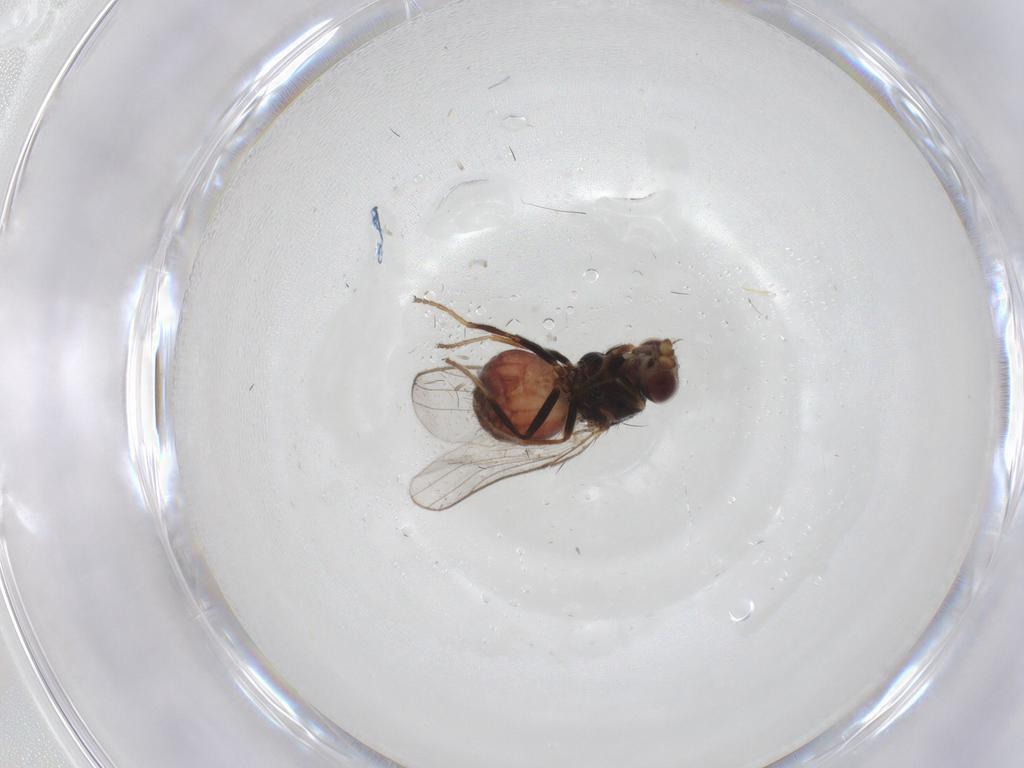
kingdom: Animalia
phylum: Arthropoda
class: Insecta
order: Diptera
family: Chloropidae
